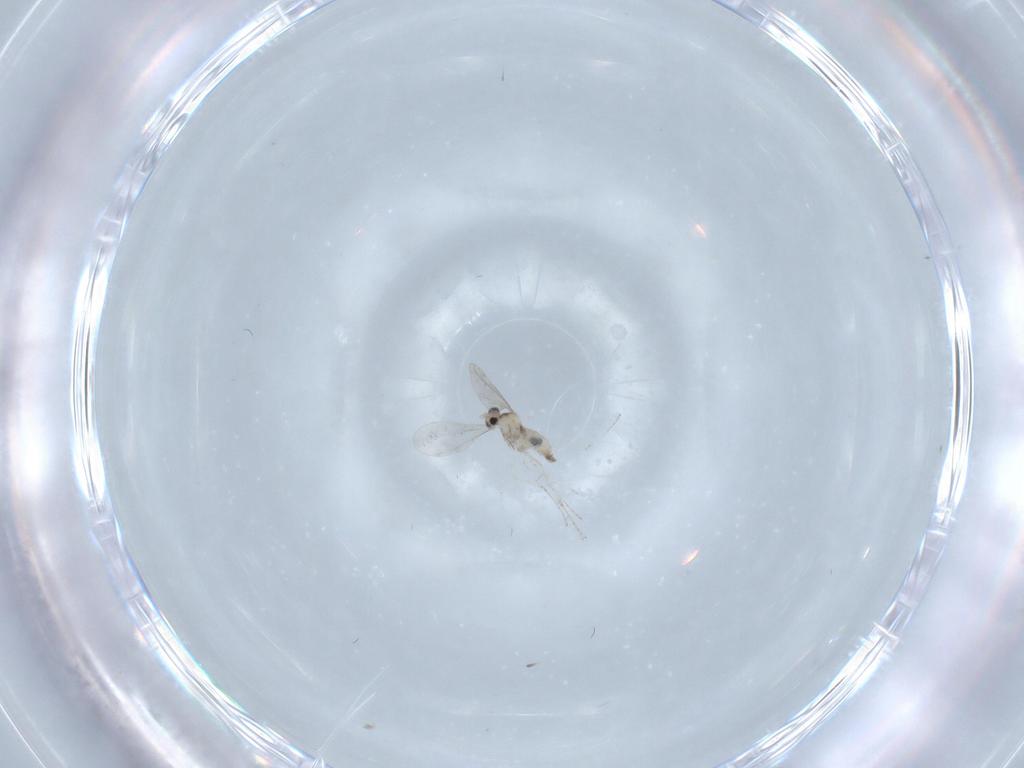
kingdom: Animalia
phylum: Arthropoda
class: Insecta
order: Diptera
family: Cecidomyiidae
